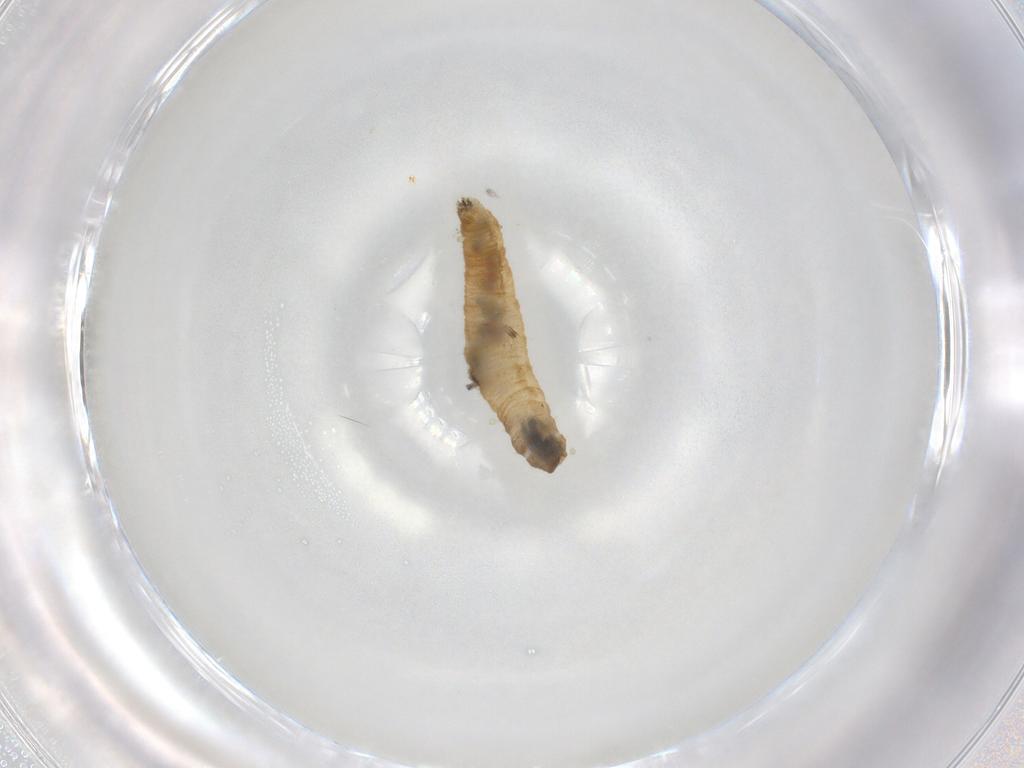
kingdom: Animalia
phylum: Arthropoda
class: Insecta
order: Diptera
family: Tipulidae
